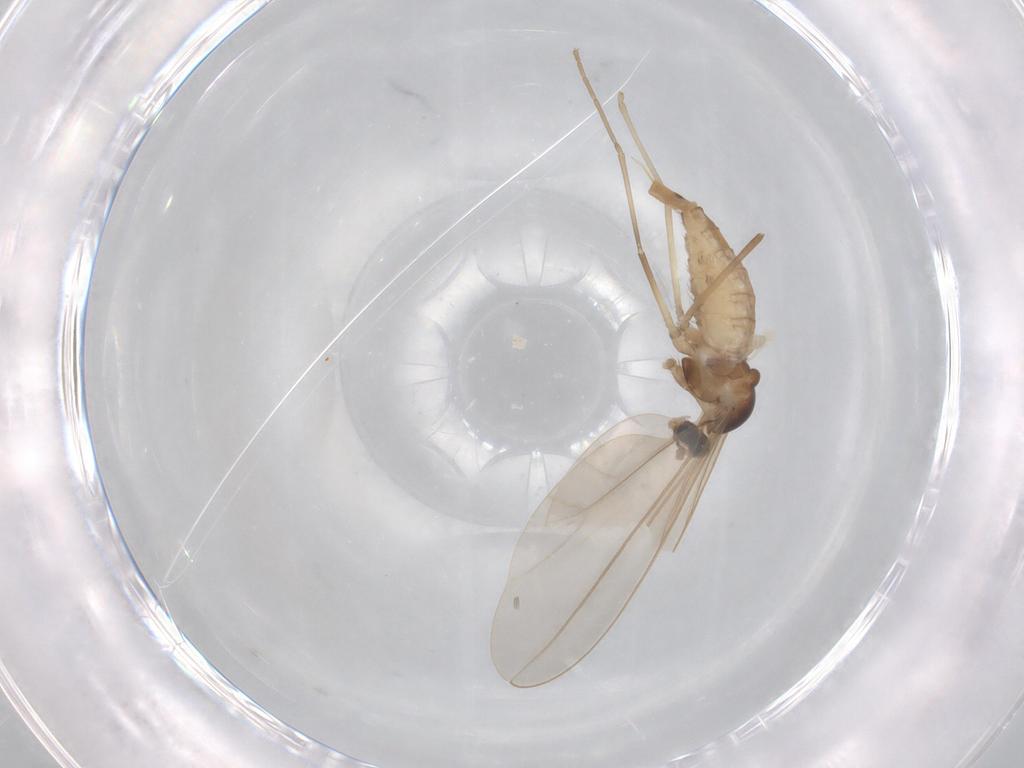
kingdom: Animalia
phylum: Arthropoda
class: Insecta
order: Diptera
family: Cecidomyiidae
